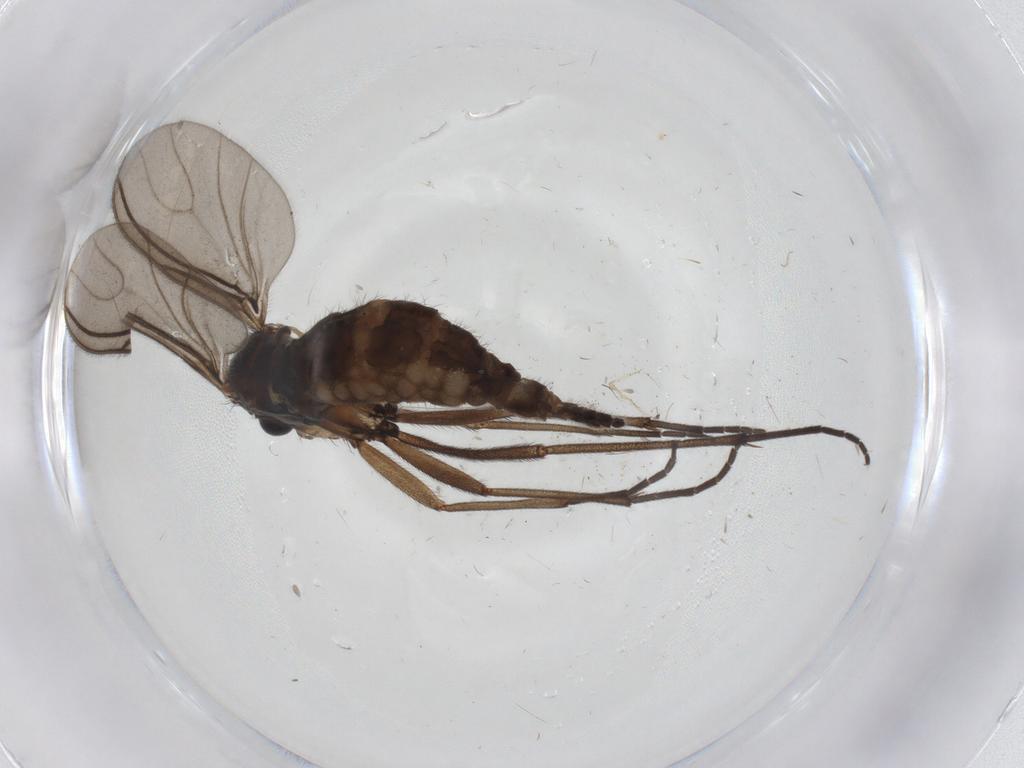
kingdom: Animalia
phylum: Arthropoda
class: Insecta
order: Diptera
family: Sciaridae
